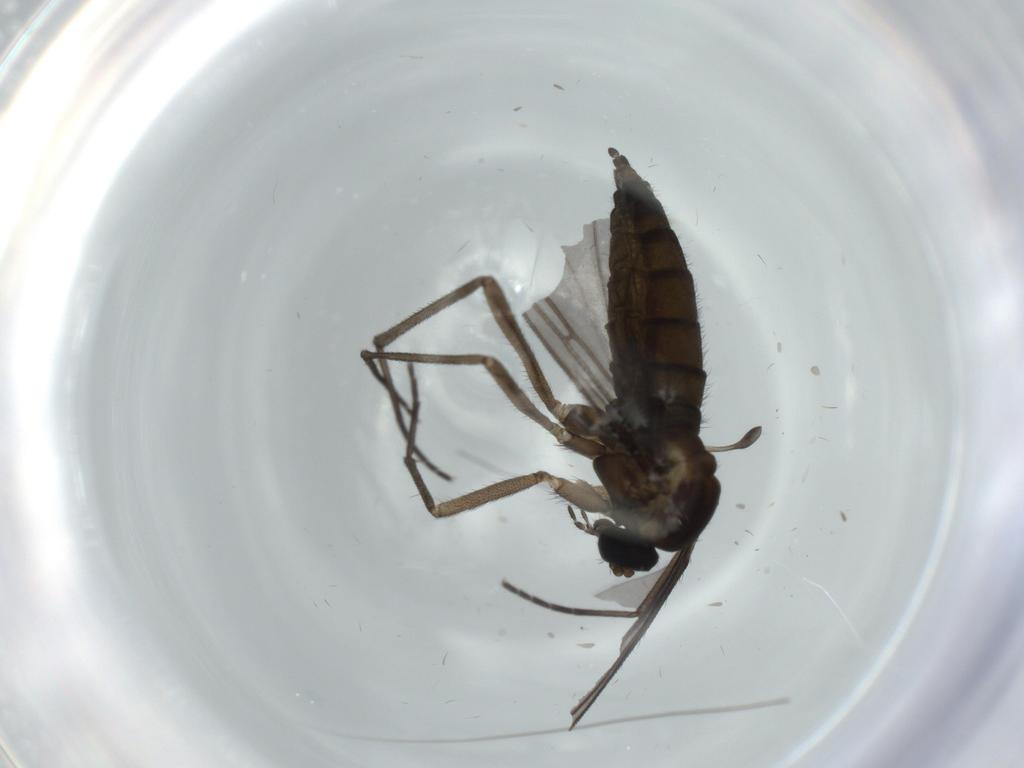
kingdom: Animalia
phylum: Arthropoda
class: Insecta
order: Diptera
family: Sciaridae
